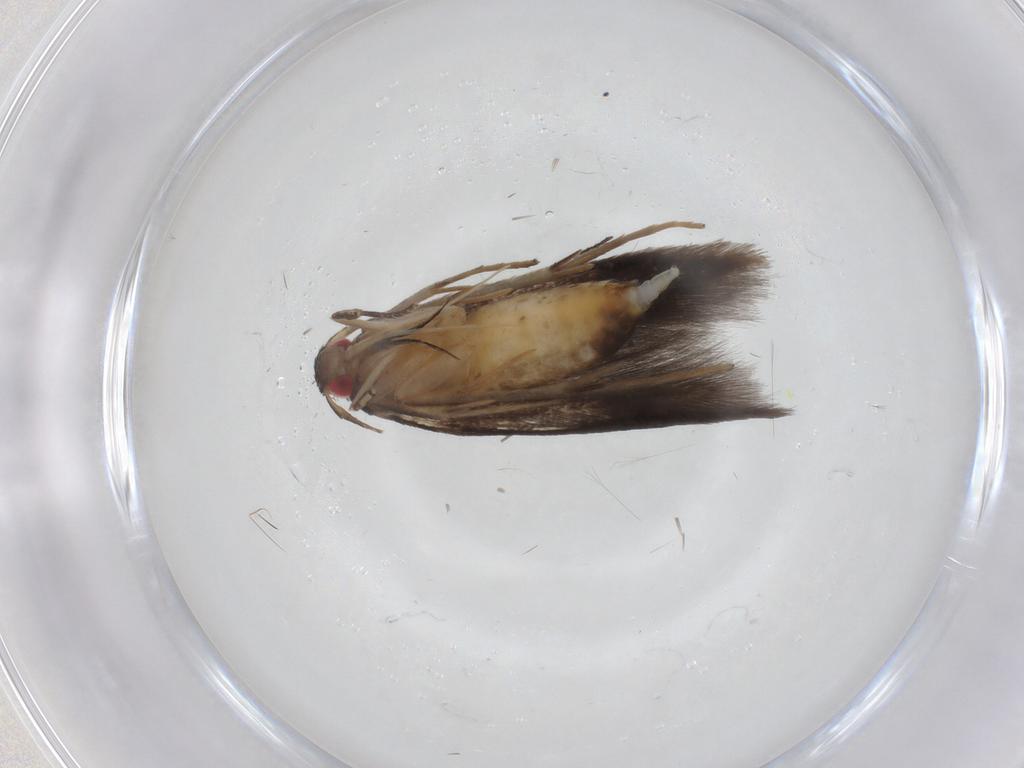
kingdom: Animalia
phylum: Arthropoda
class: Insecta
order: Lepidoptera
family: Cosmopterigidae
